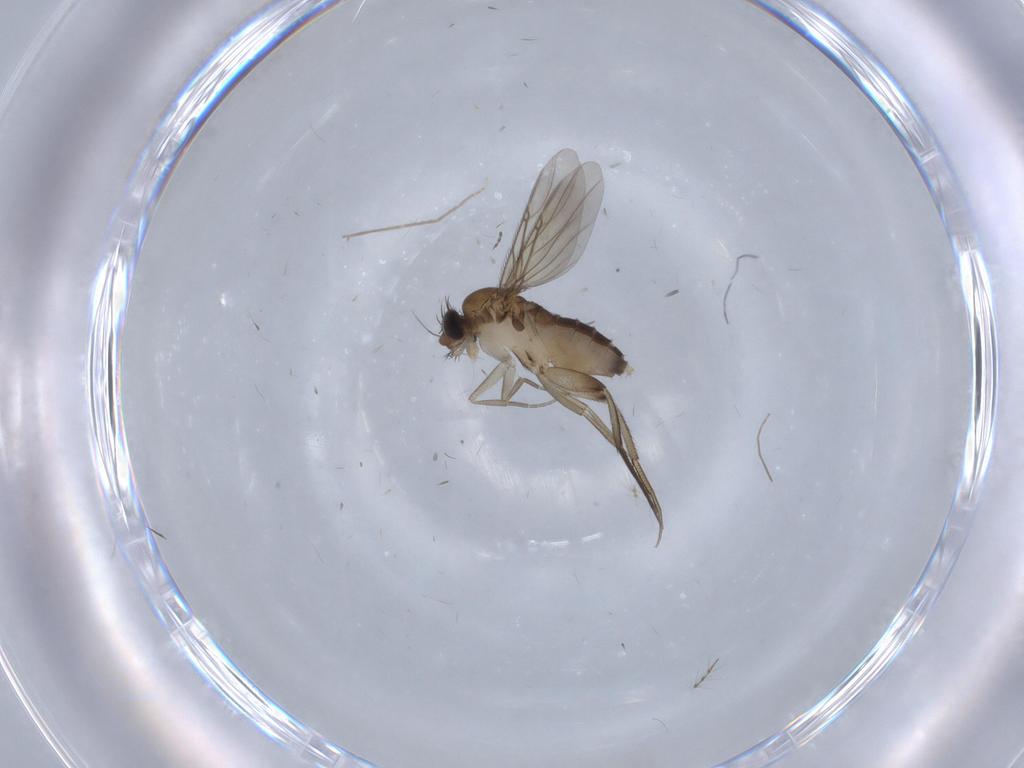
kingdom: Animalia
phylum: Arthropoda
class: Insecta
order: Diptera
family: Phoridae
